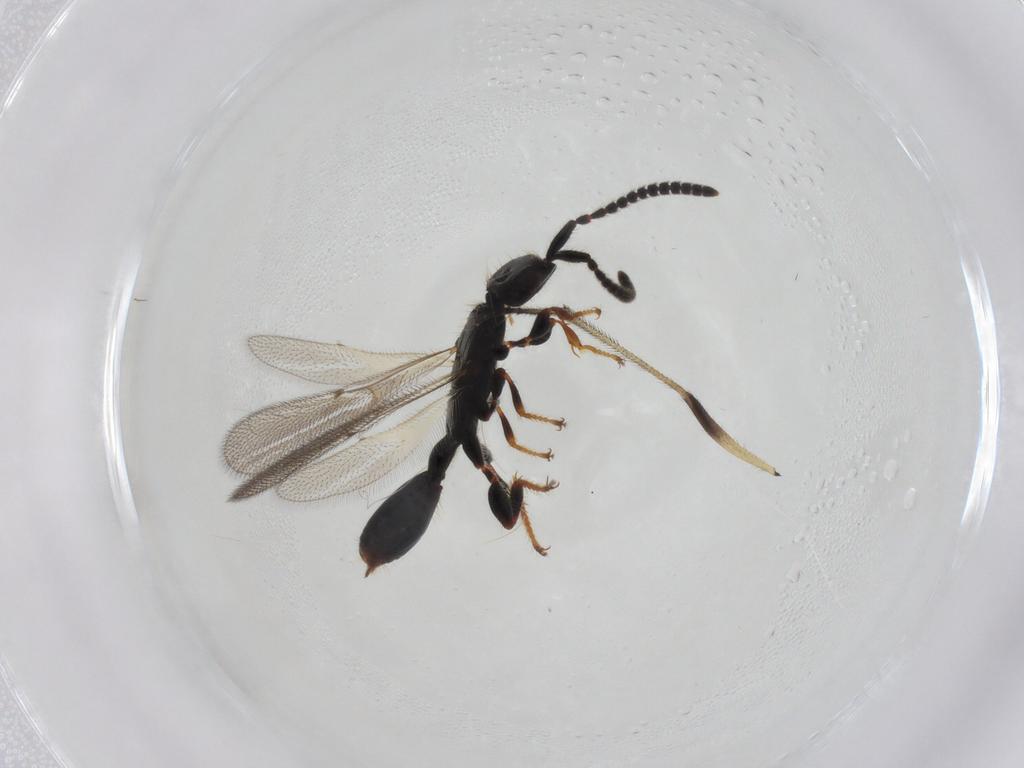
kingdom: Animalia
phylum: Arthropoda
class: Insecta
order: Hymenoptera
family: Diapriidae
